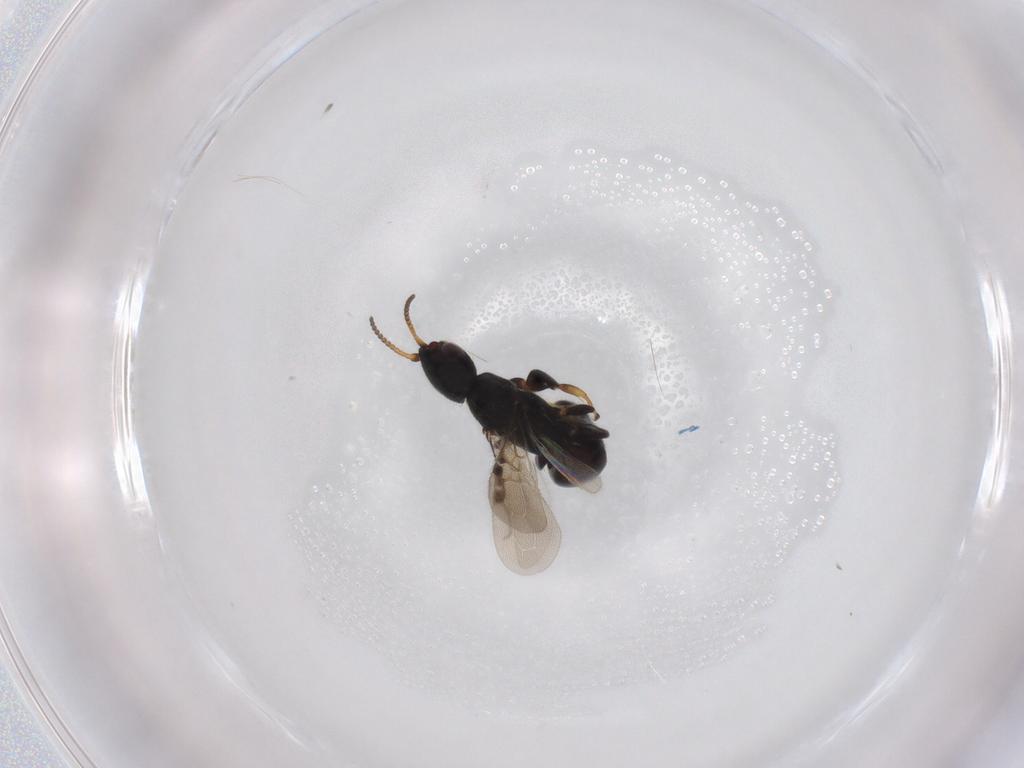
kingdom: Animalia
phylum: Arthropoda
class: Insecta
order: Hymenoptera
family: Bethylidae
